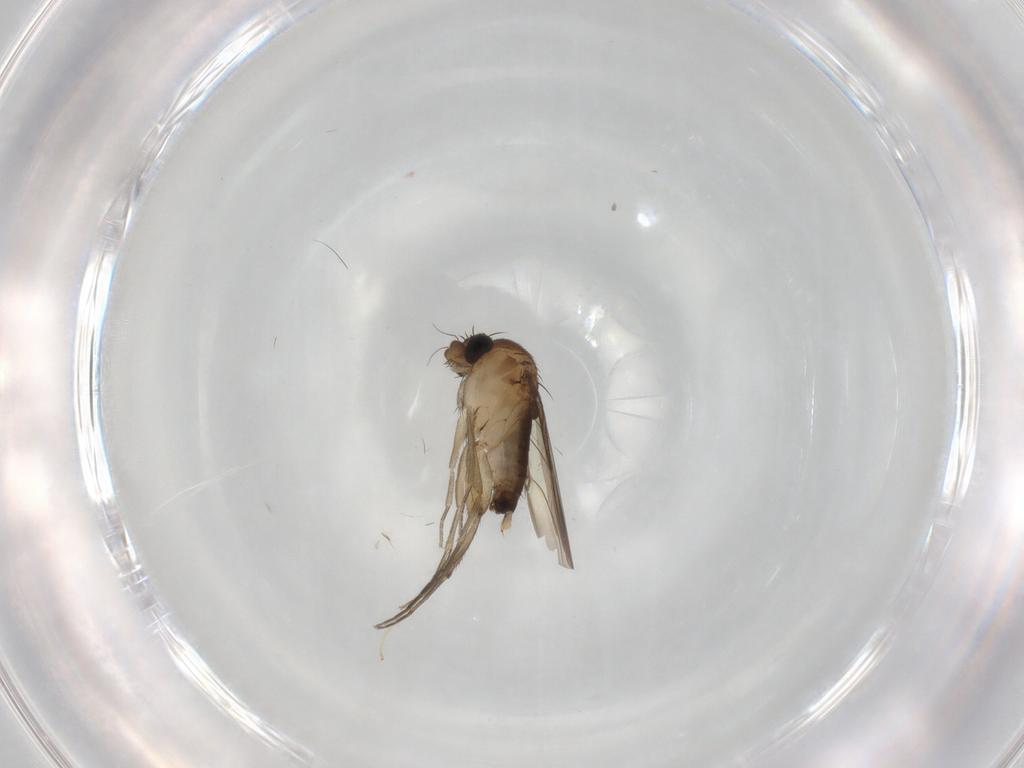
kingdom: Animalia
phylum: Arthropoda
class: Insecta
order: Diptera
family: Chironomidae
